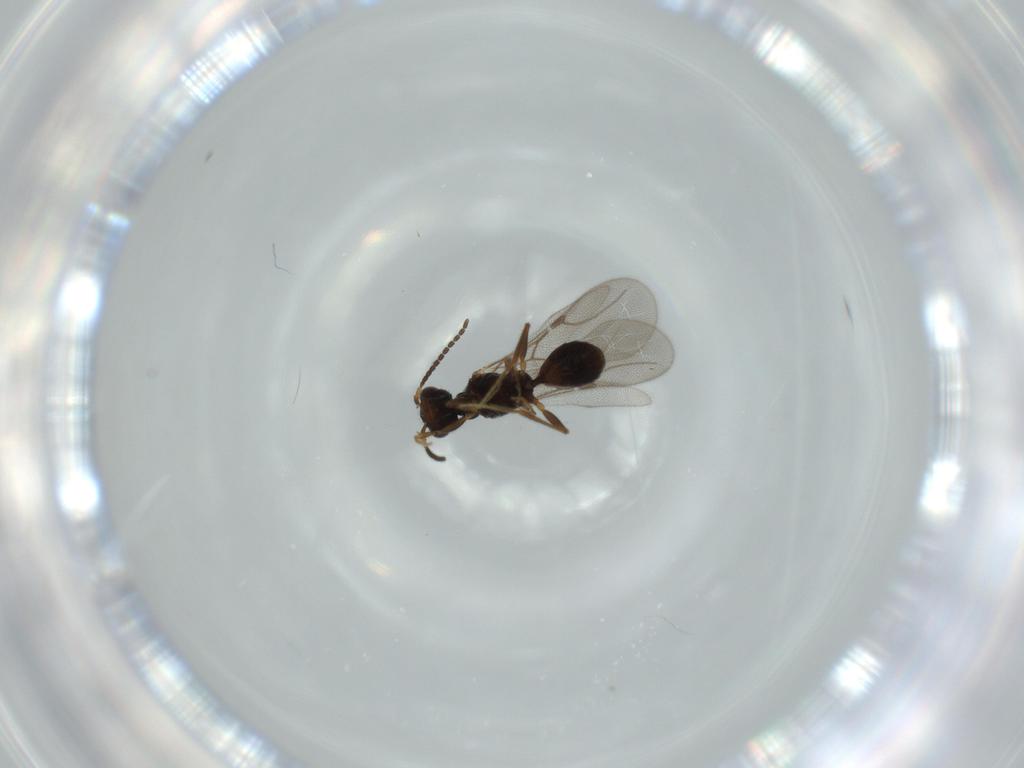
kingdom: Animalia
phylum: Arthropoda
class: Insecta
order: Hymenoptera
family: Bethylidae
